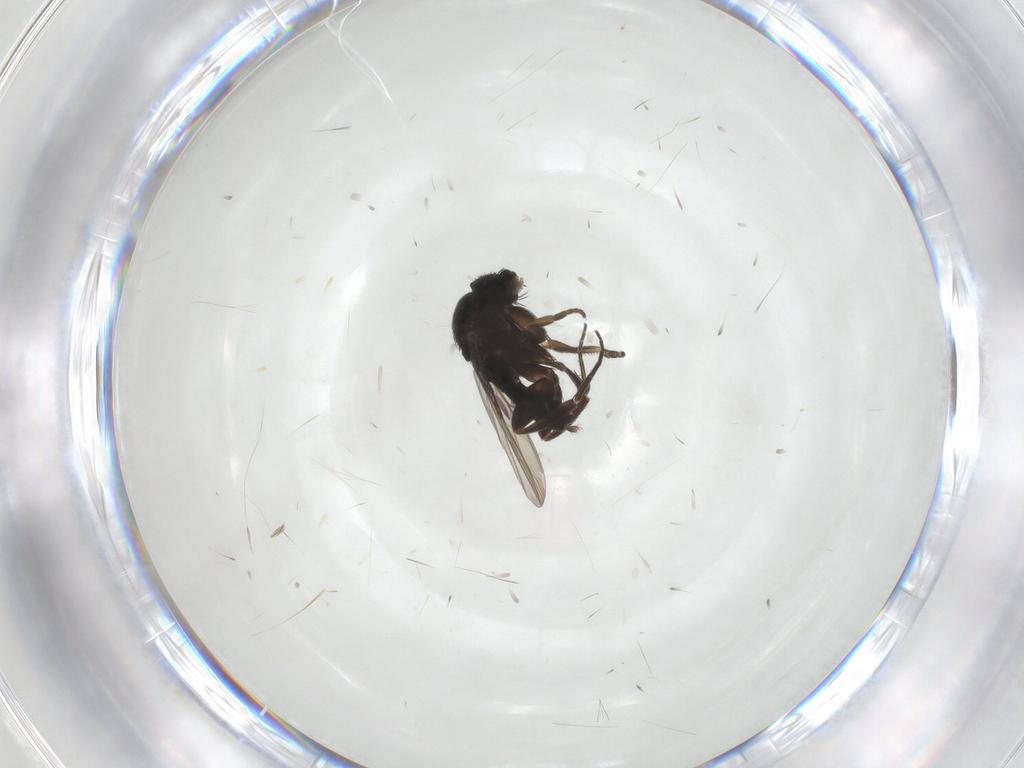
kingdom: Animalia
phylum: Arthropoda
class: Insecta
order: Diptera
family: Phoridae
